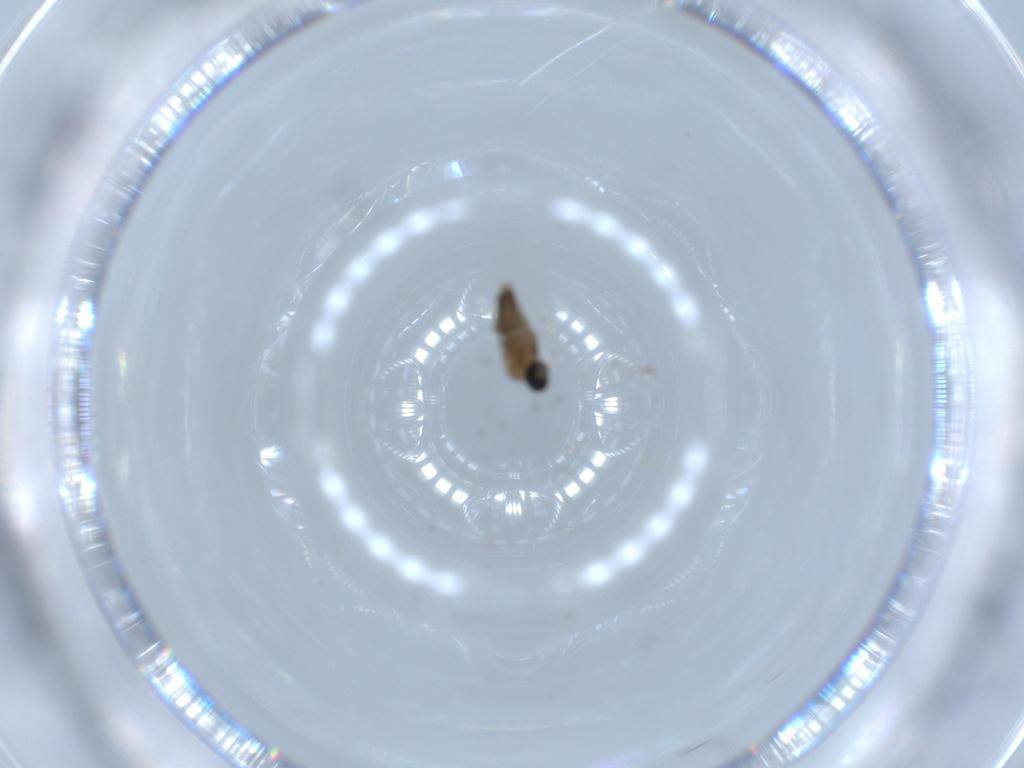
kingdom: Animalia
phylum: Arthropoda
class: Insecta
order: Diptera
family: Cecidomyiidae
